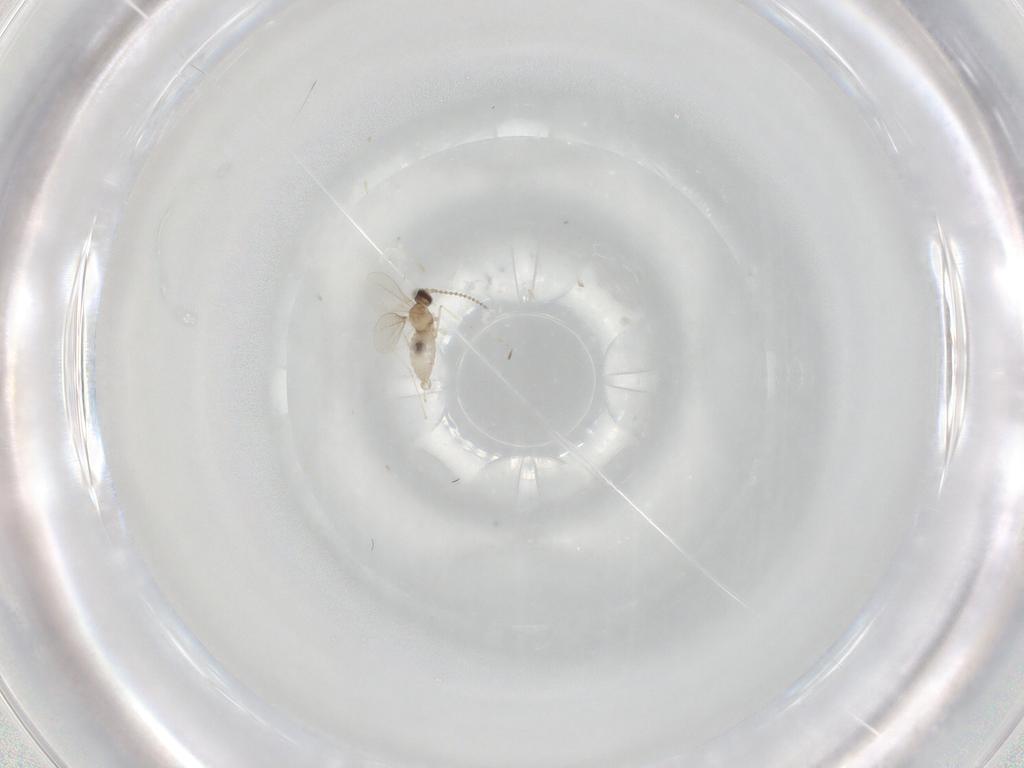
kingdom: Animalia
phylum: Arthropoda
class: Insecta
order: Diptera
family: Cecidomyiidae
